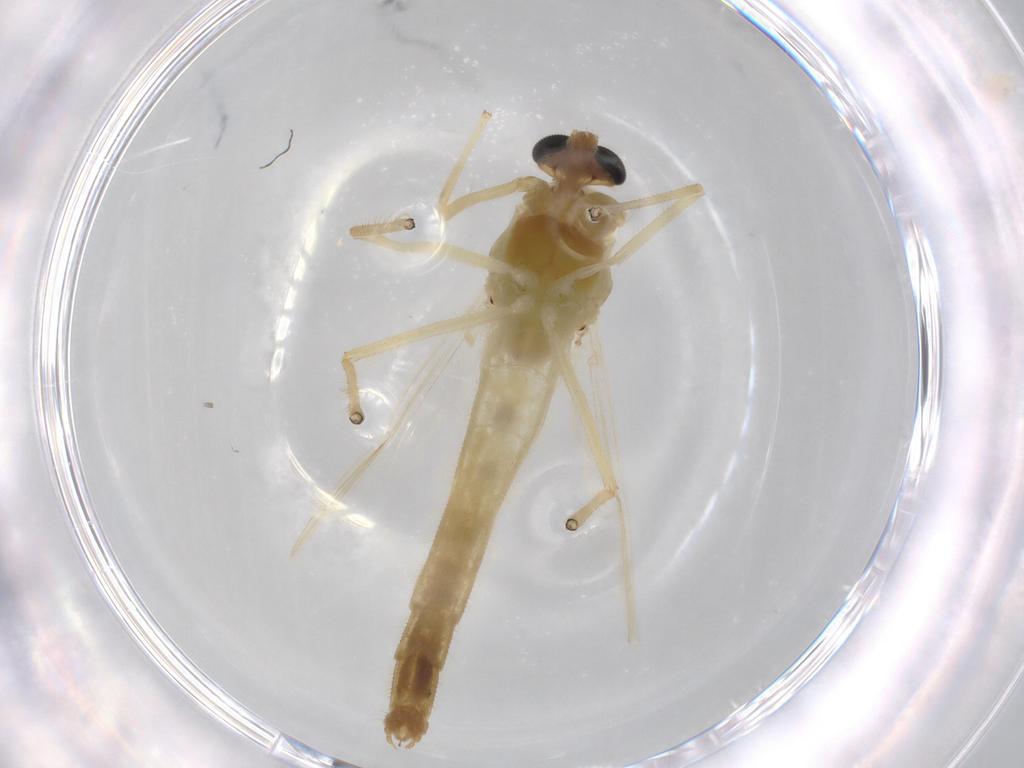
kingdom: Animalia
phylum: Arthropoda
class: Insecta
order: Diptera
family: Chironomidae
